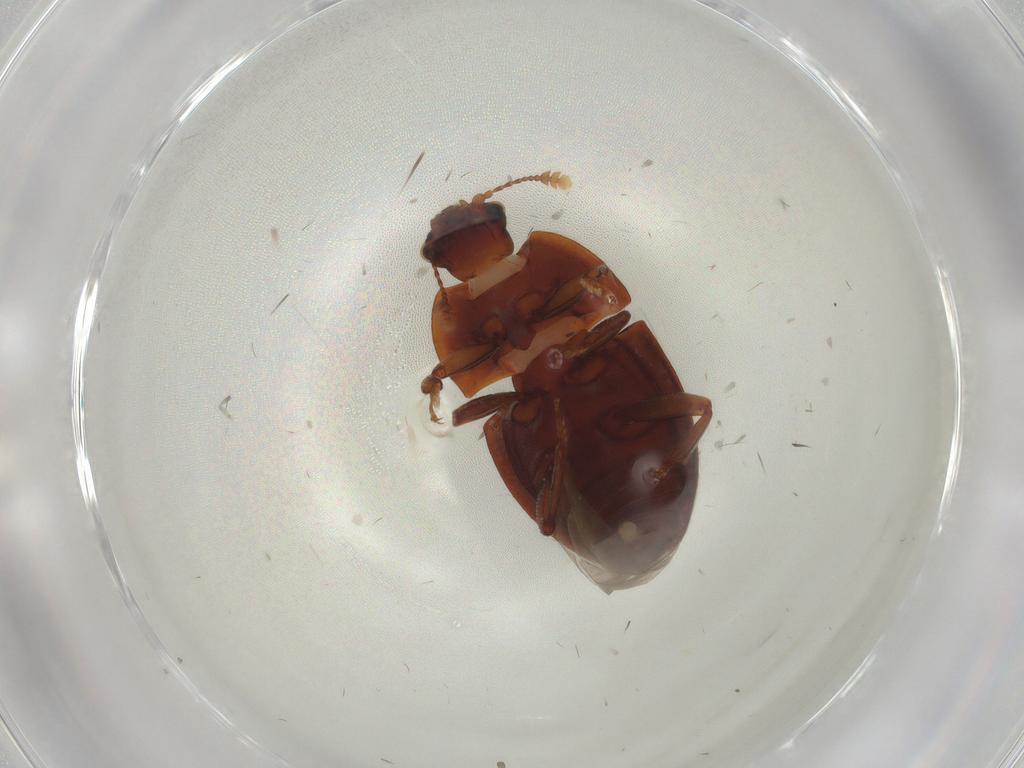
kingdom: Animalia
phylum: Arthropoda
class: Insecta
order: Coleoptera
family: Nitidulidae
